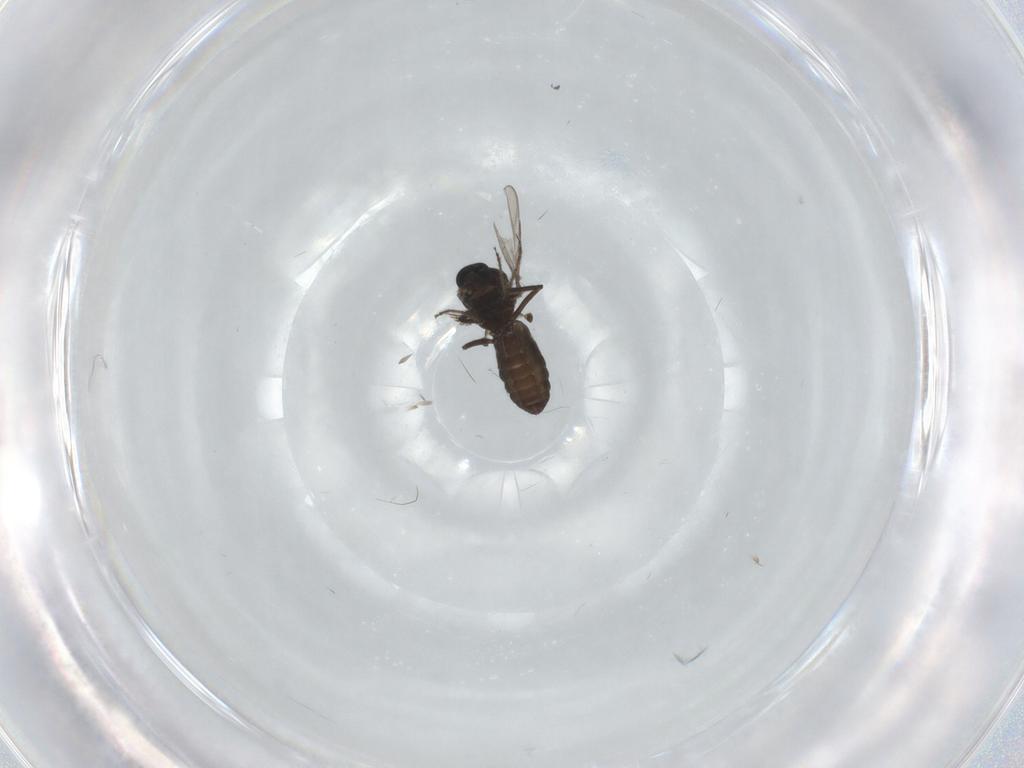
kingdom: Animalia
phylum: Arthropoda
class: Insecta
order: Diptera
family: Ceratopogonidae
